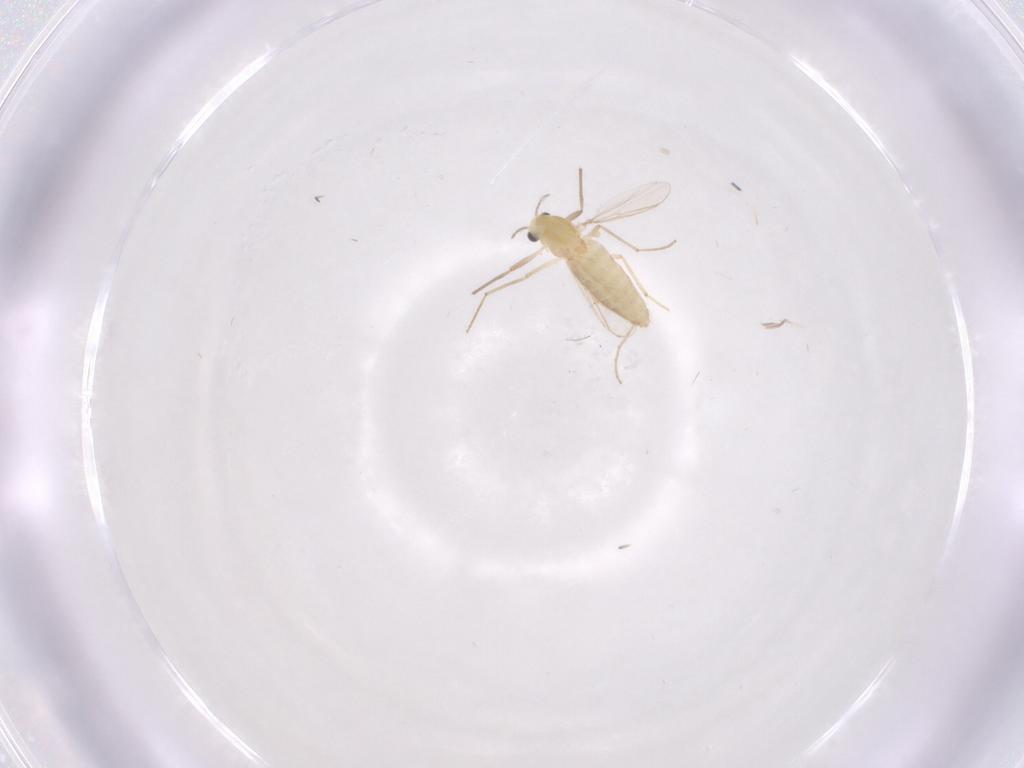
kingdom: Animalia
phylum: Arthropoda
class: Insecta
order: Diptera
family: Chironomidae
